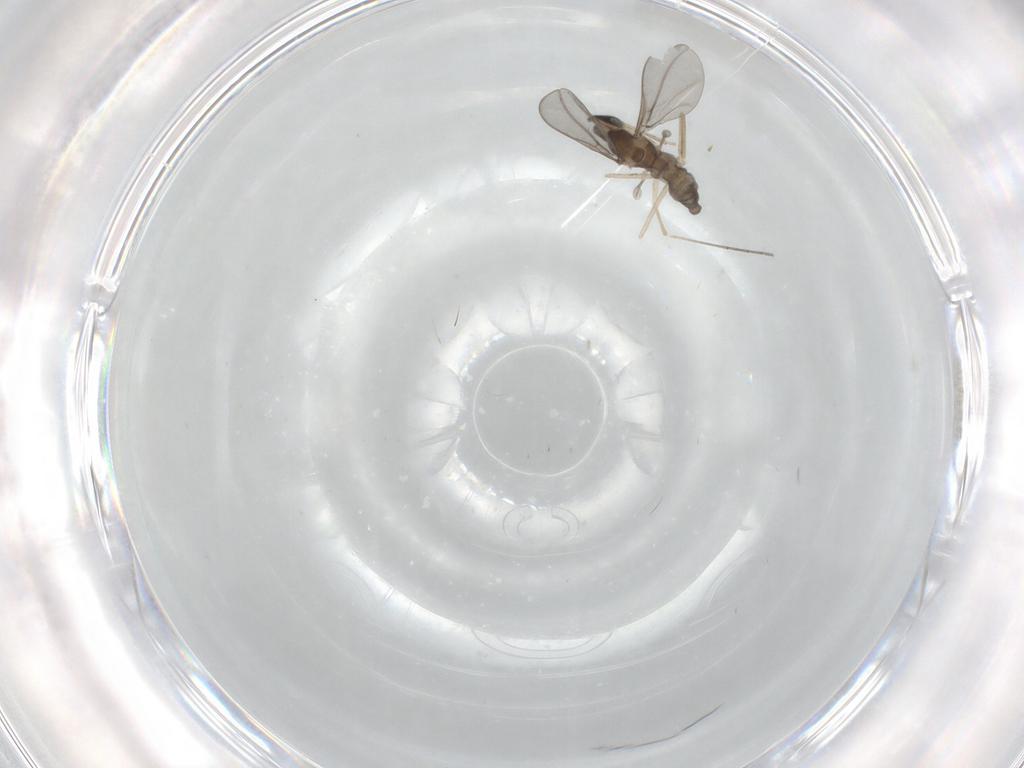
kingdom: Animalia
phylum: Arthropoda
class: Insecta
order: Diptera
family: Cecidomyiidae
